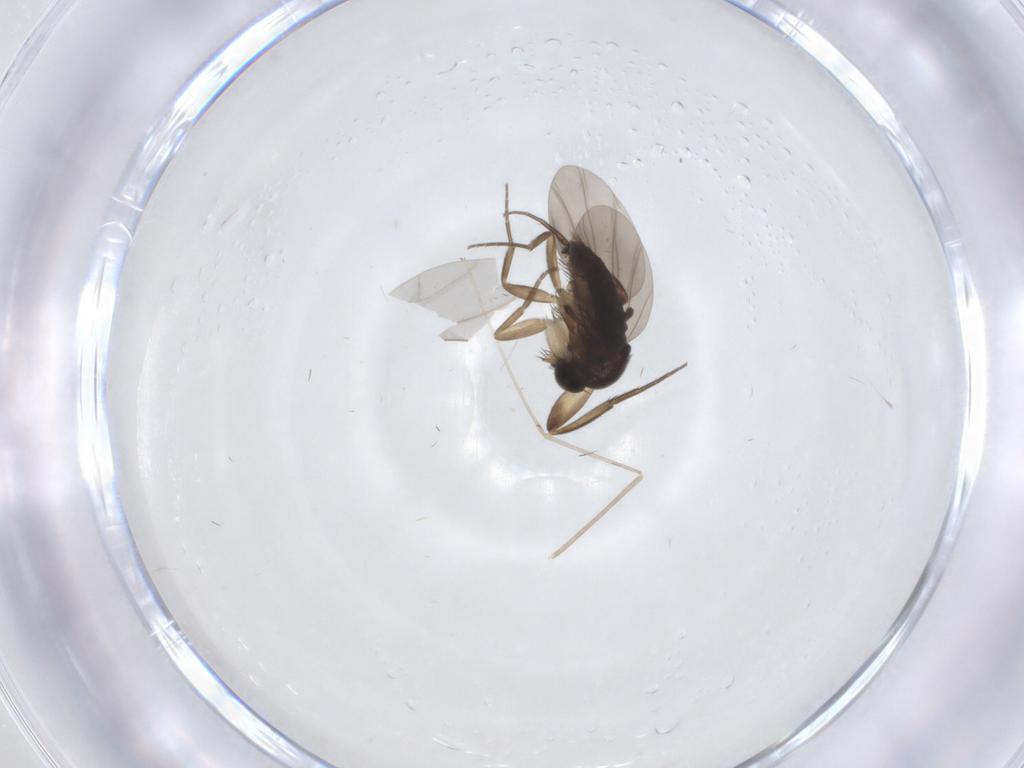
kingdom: Animalia
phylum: Arthropoda
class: Insecta
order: Diptera
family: Phoridae
